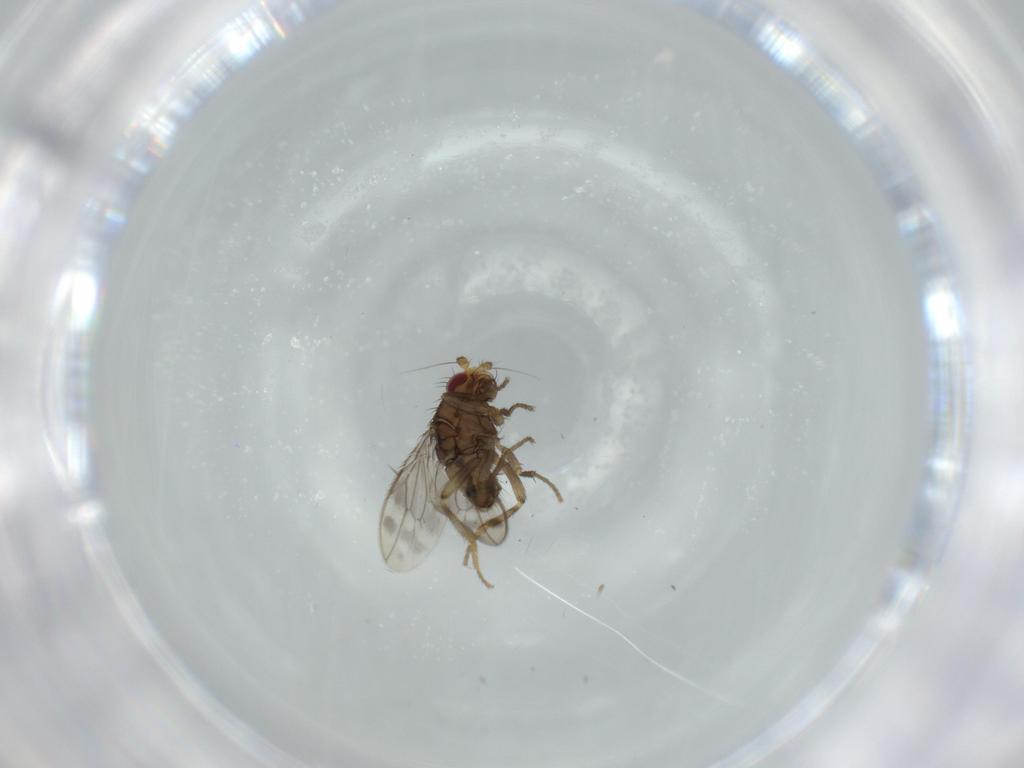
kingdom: Animalia
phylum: Arthropoda
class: Insecta
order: Diptera
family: Sphaeroceridae
